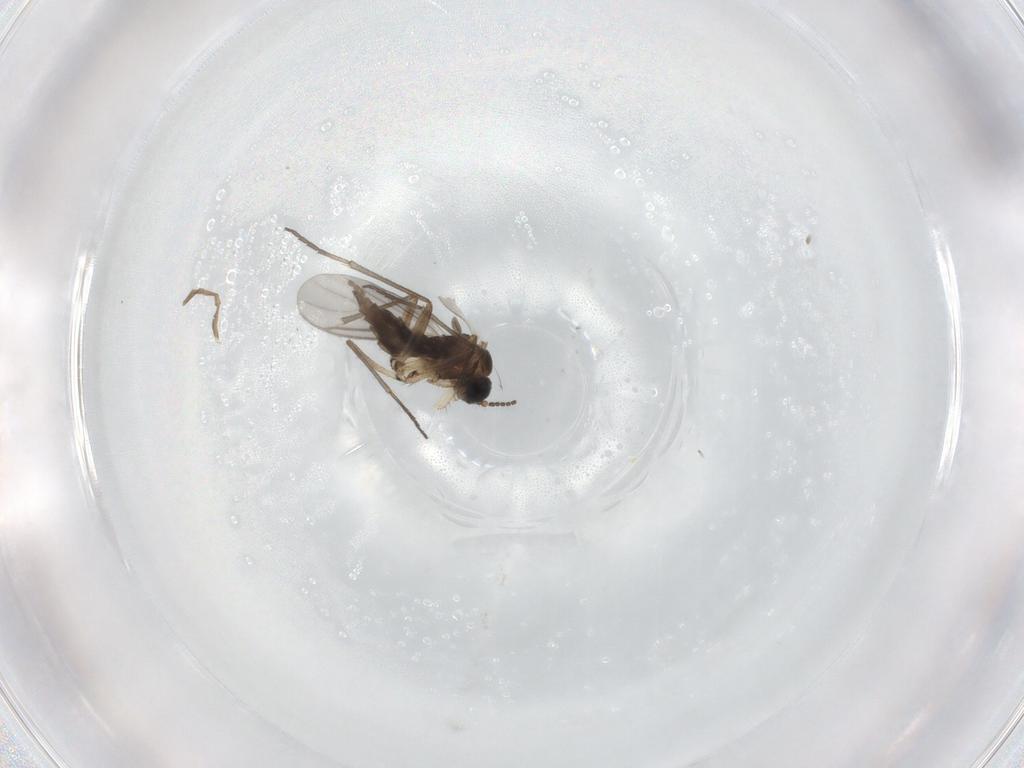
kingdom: Animalia
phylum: Arthropoda
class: Insecta
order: Diptera
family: Sciaridae
